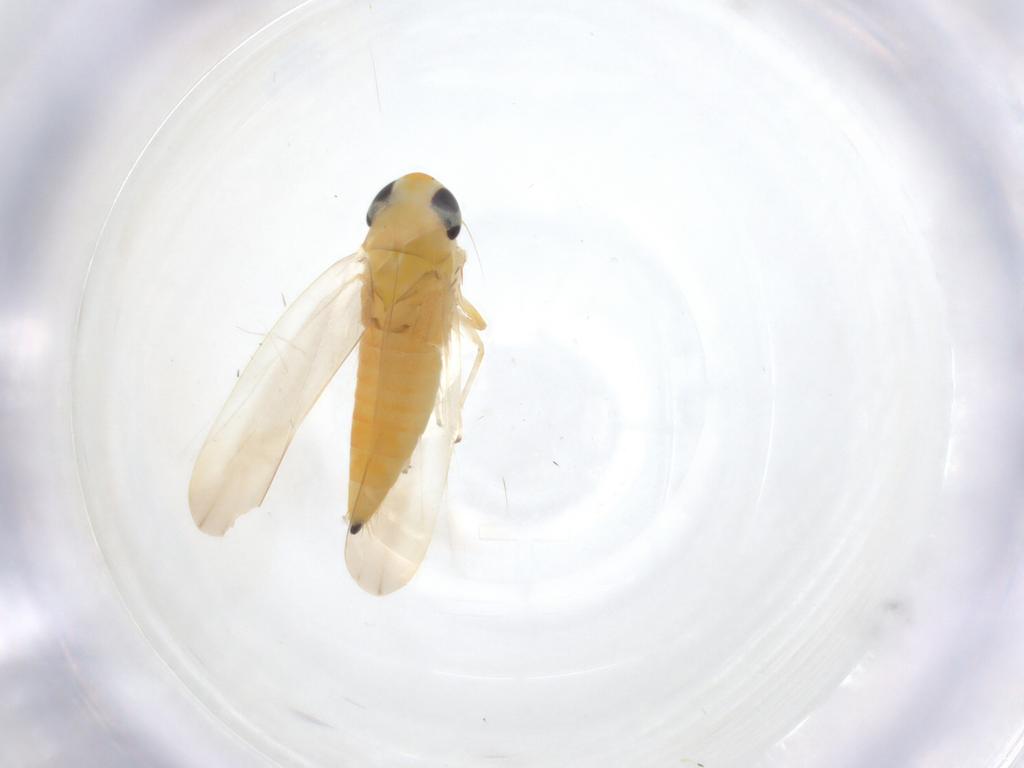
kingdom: Animalia
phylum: Arthropoda
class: Insecta
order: Hemiptera
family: Cicadellidae
